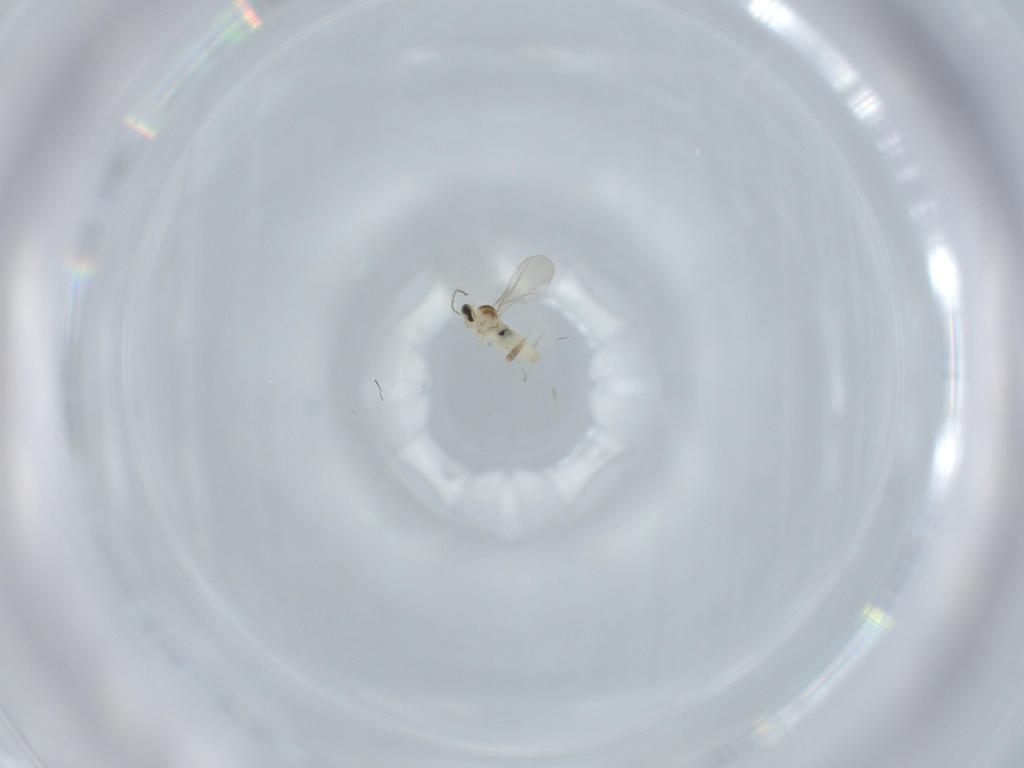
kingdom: Animalia
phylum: Arthropoda
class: Insecta
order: Diptera
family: Cecidomyiidae
